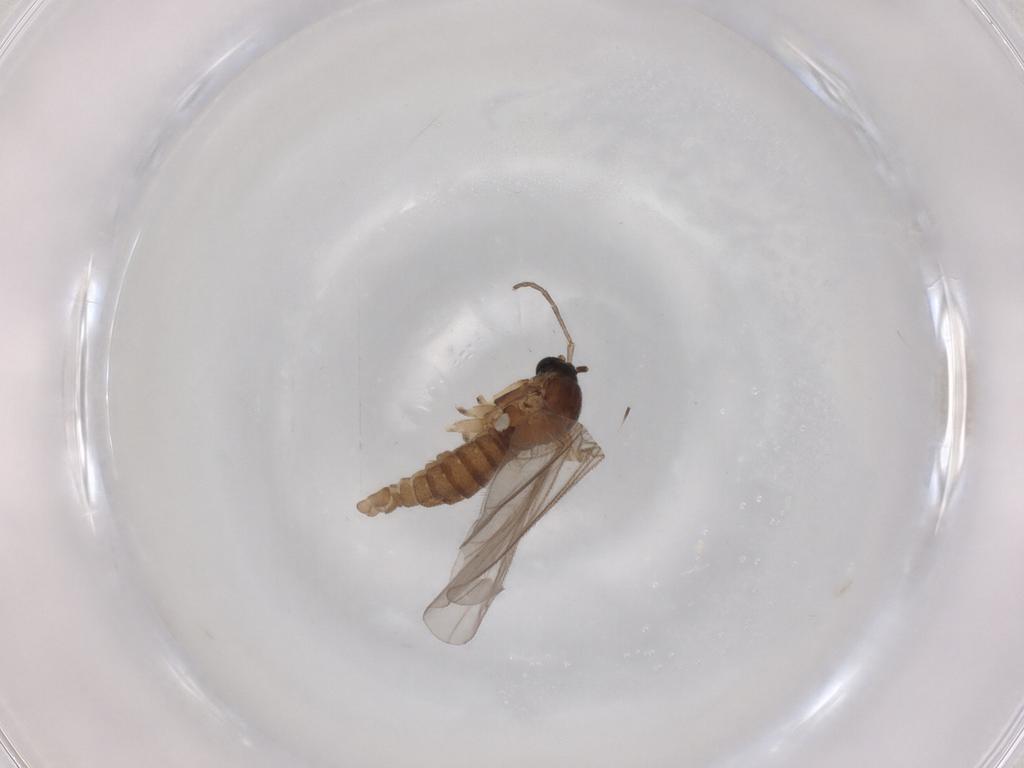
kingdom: Animalia
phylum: Arthropoda
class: Insecta
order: Diptera
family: Sciaridae
